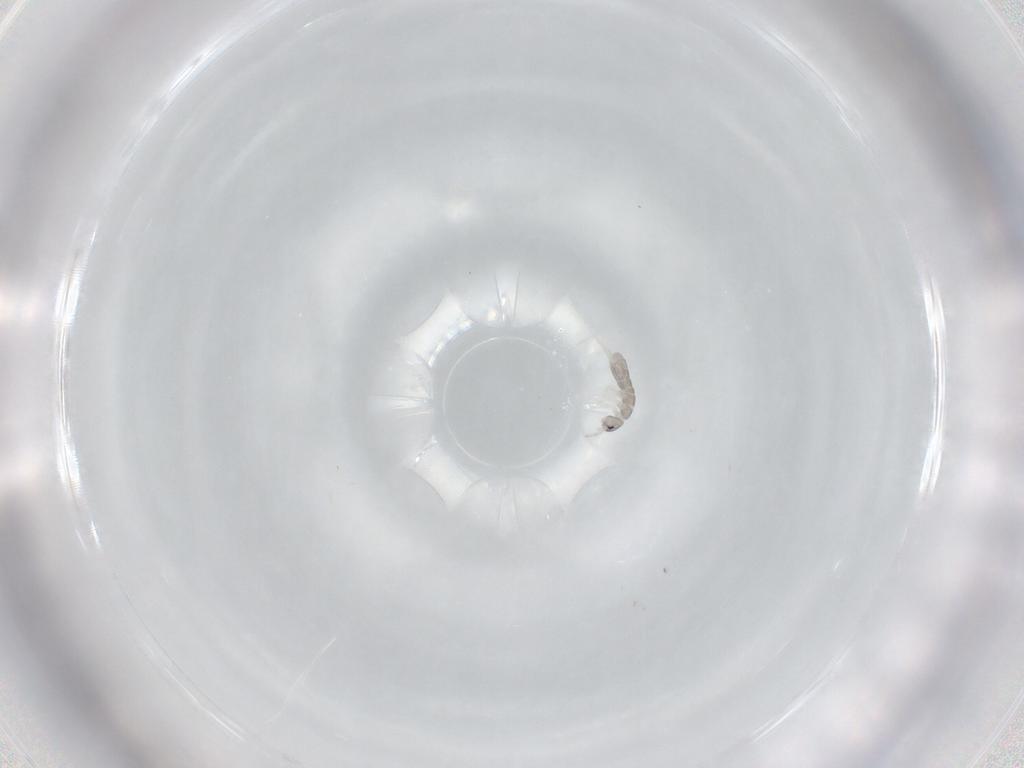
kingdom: Animalia
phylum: Arthropoda
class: Collembola
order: Entomobryomorpha
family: Isotomidae
